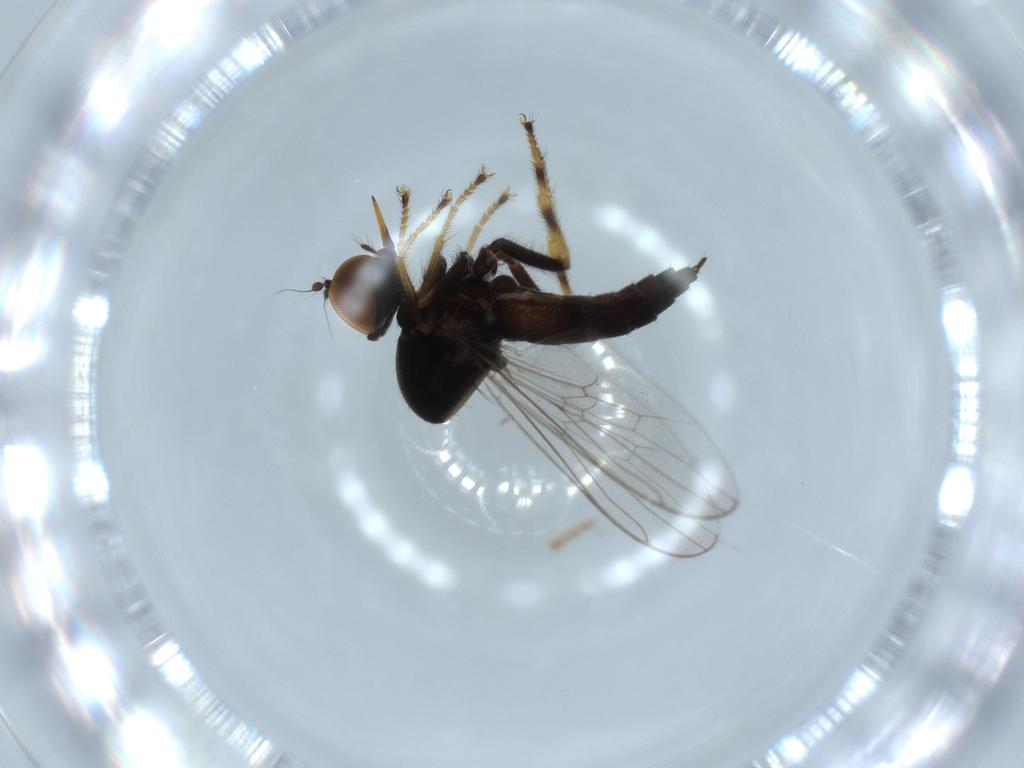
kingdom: Animalia
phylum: Arthropoda
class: Insecta
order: Diptera
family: Hybotidae
